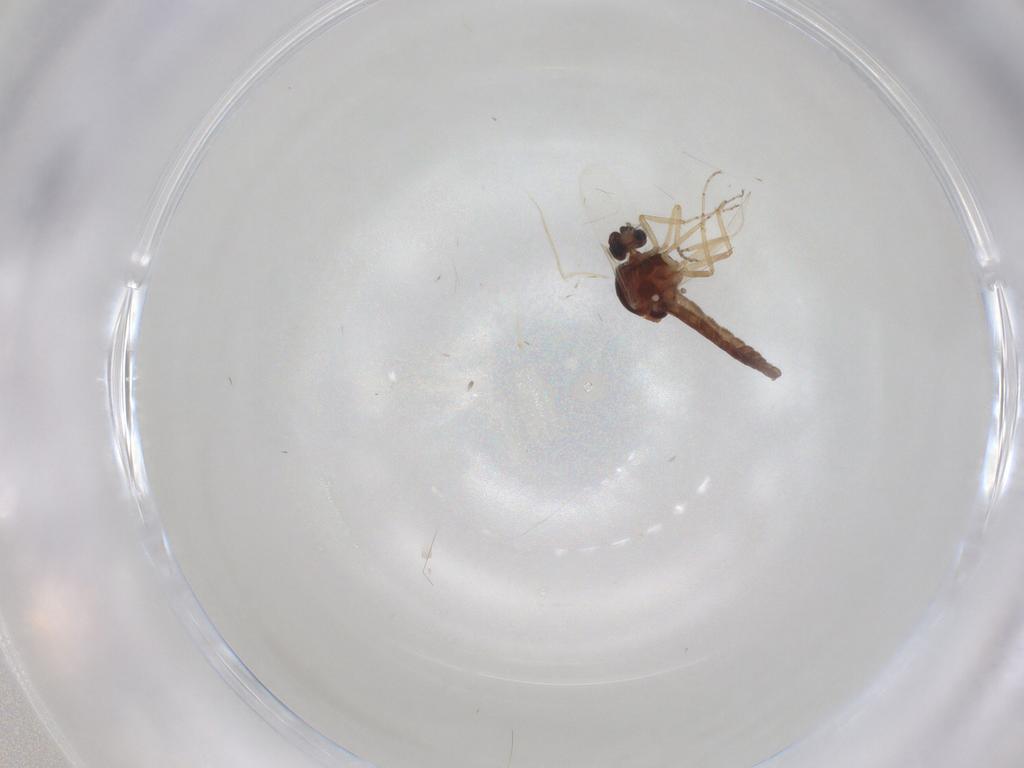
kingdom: Animalia
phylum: Arthropoda
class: Insecta
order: Diptera
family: Ceratopogonidae
